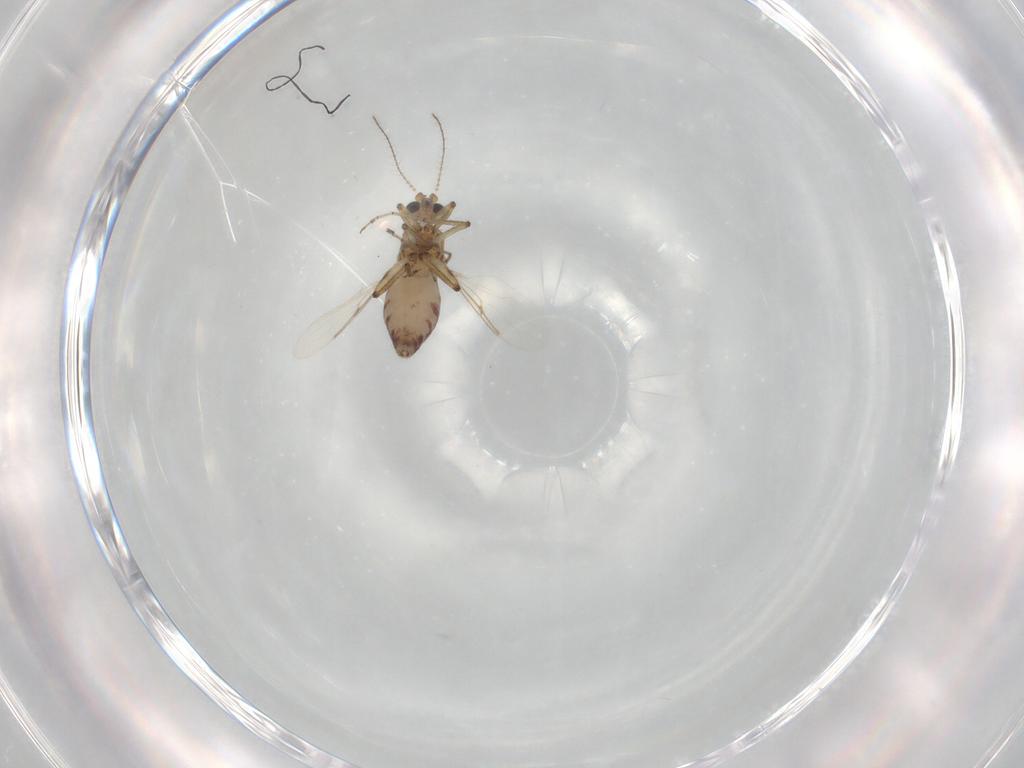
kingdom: Animalia
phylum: Arthropoda
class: Insecta
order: Diptera
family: Ceratopogonidae
